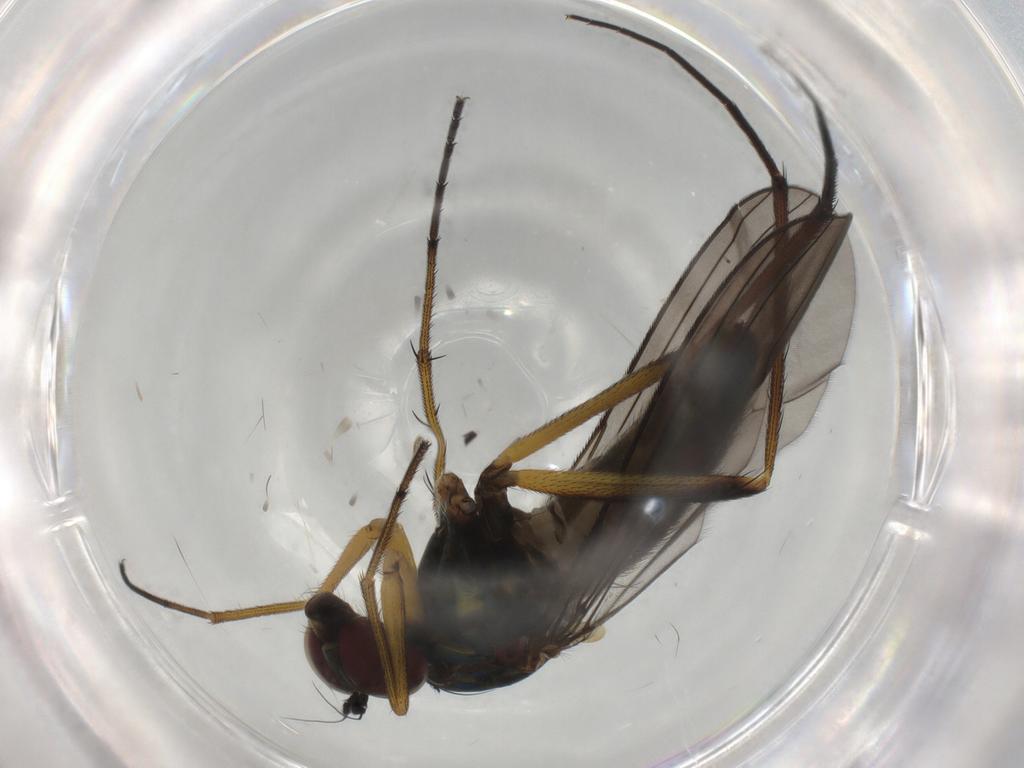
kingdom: Animalia
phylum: Arthropoda
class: Insecta
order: Diptera
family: Dolichopodidae
